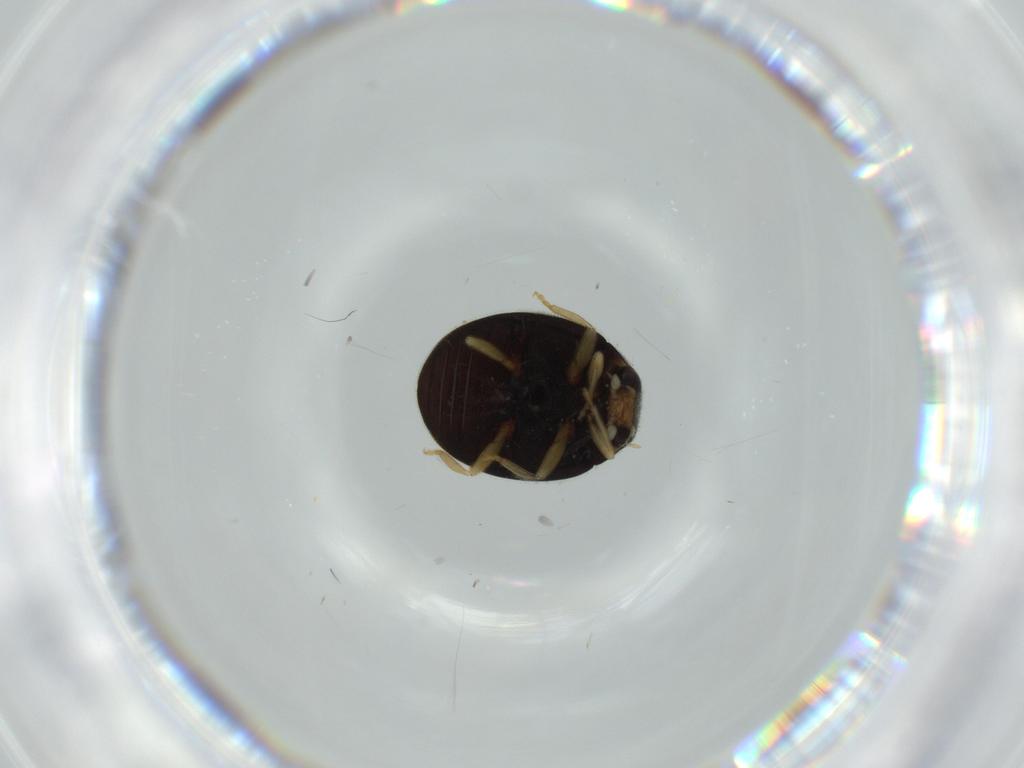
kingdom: Animalia
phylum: Arthropoda
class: Insecta
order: Coleoptera
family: Coccinellidae
